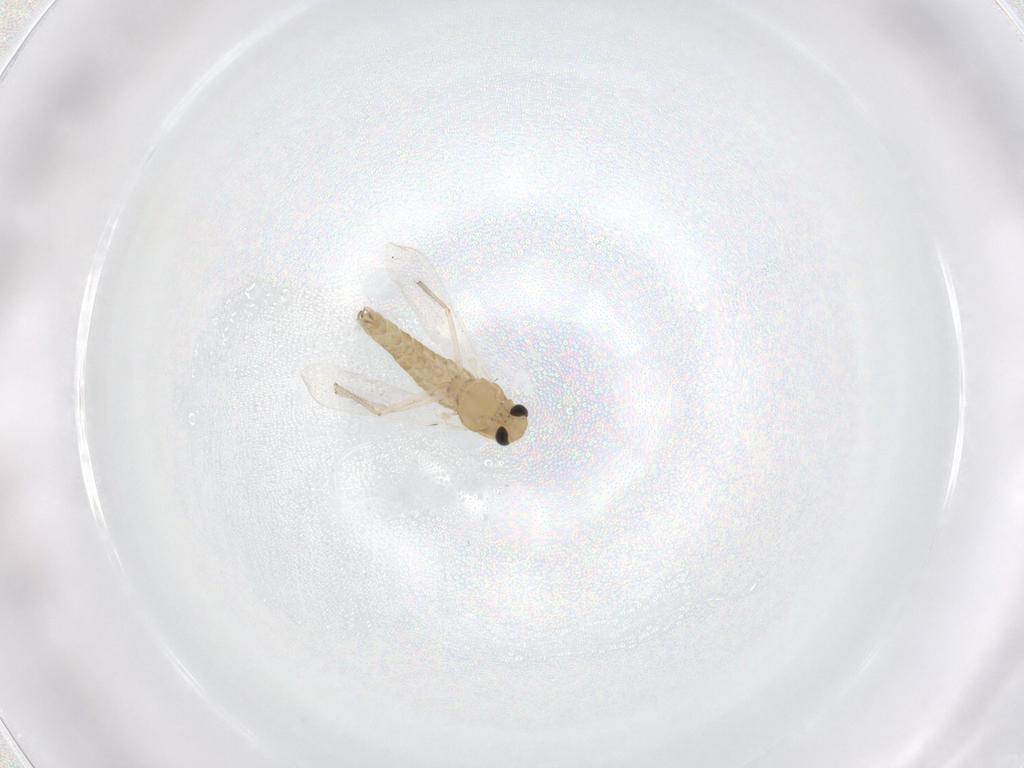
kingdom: Animalia
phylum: Arthropoda
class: Insecta
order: Diptera
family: Chironomidae
